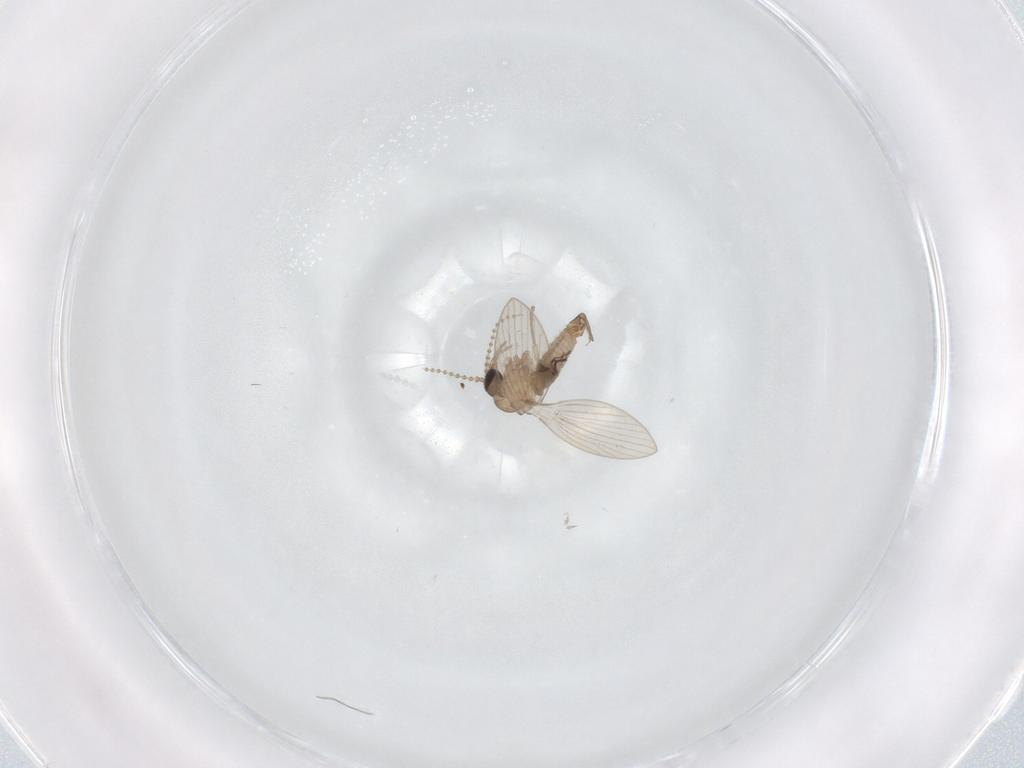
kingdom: Animalia
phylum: Arthropoda
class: Insecta
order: Diptera
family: Psychodidae
